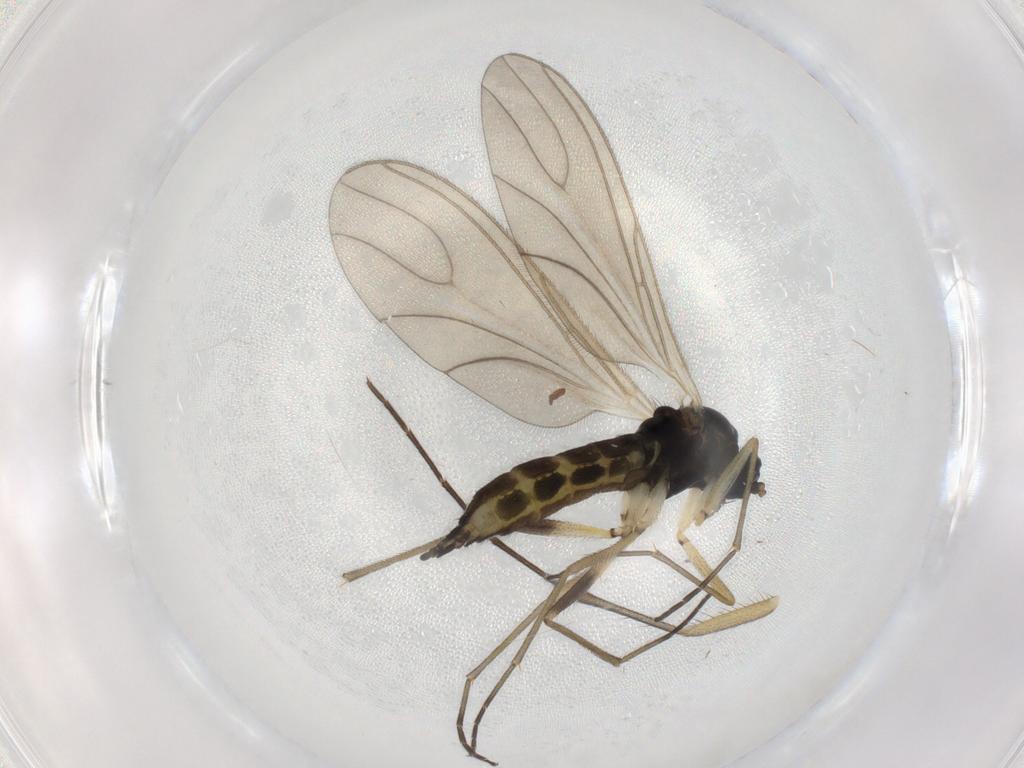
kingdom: Animalia
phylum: Arthropoda
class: Insecta
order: Diptera
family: Sciaridae
